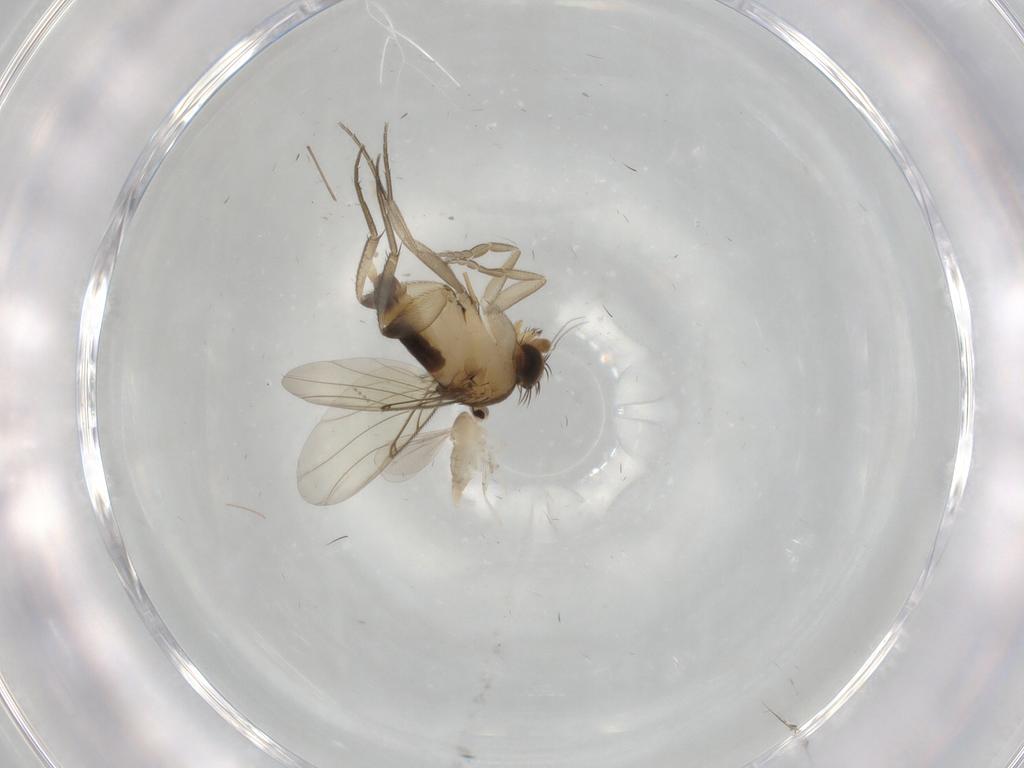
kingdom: Animalia
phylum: Arthropoda
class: Insecta
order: Diptera
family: Cecidomyiidae
